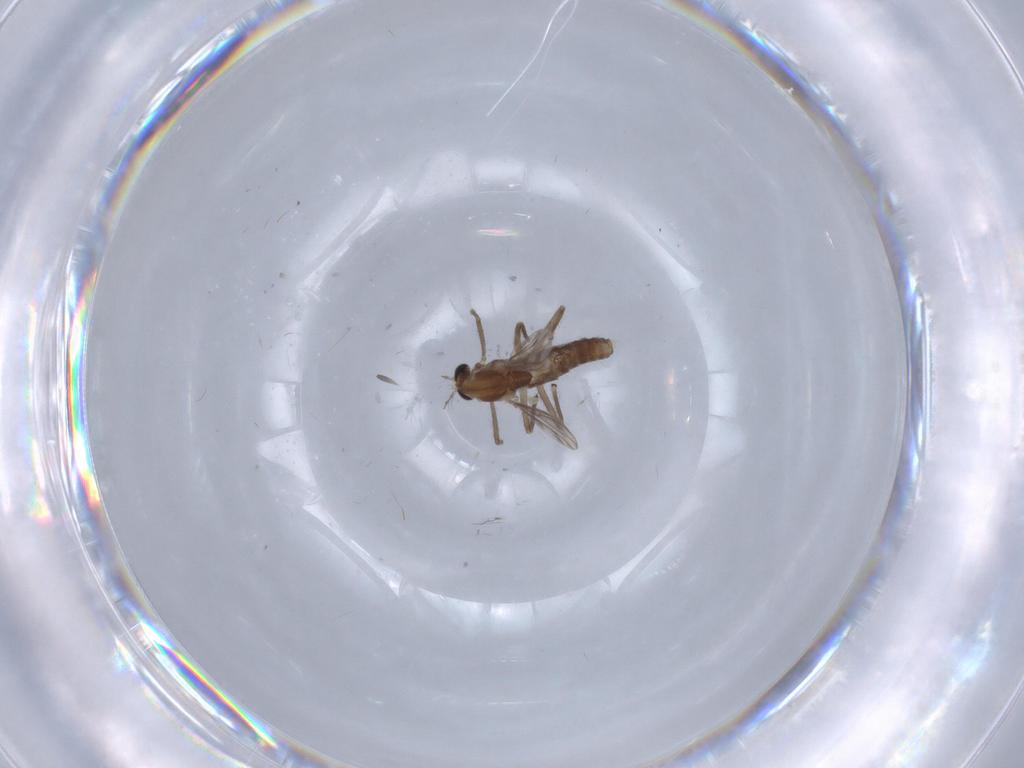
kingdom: Animalia
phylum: Arthropoda
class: Insecta
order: Diptera
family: Chironomidae
